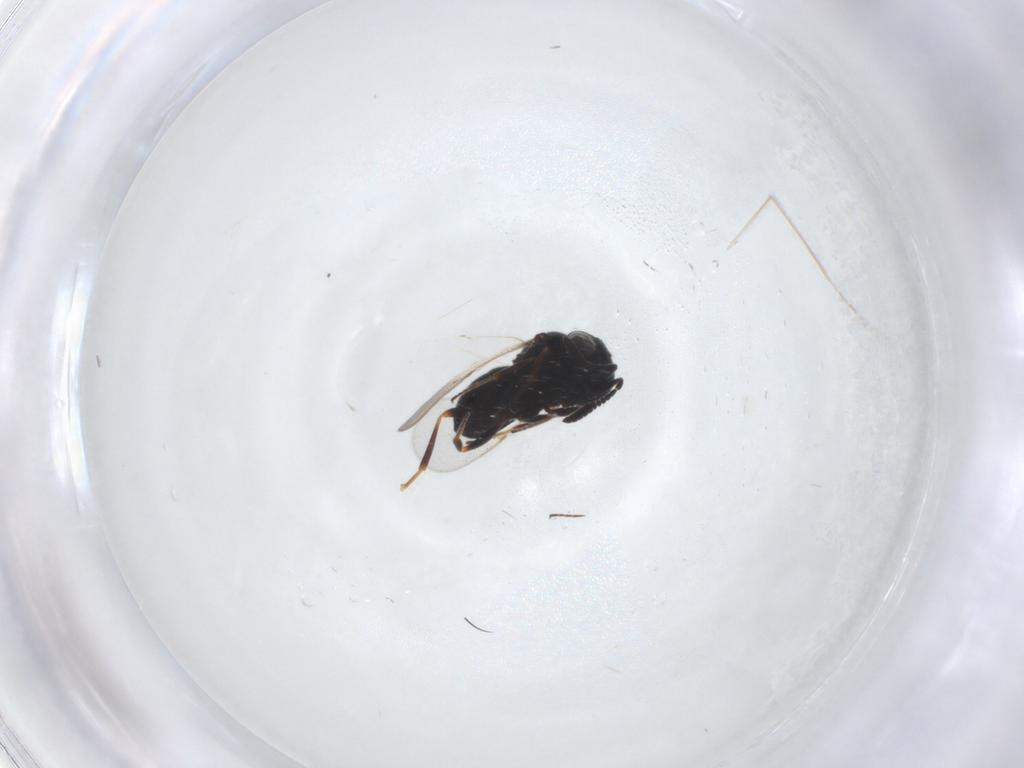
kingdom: Animalia
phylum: Arthropoda
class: Insecta
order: Hymenoptera
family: Scelionidae
